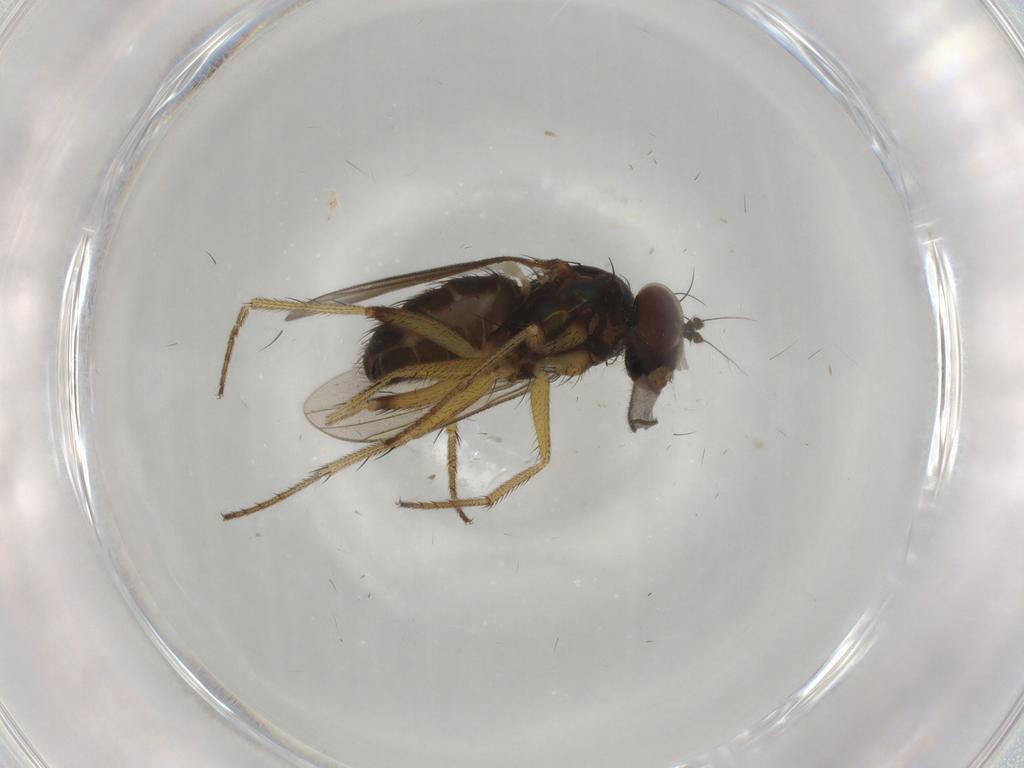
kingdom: Animalia
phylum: Arthropoda
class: Insecta
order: Diptera
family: Dolichopodidae
